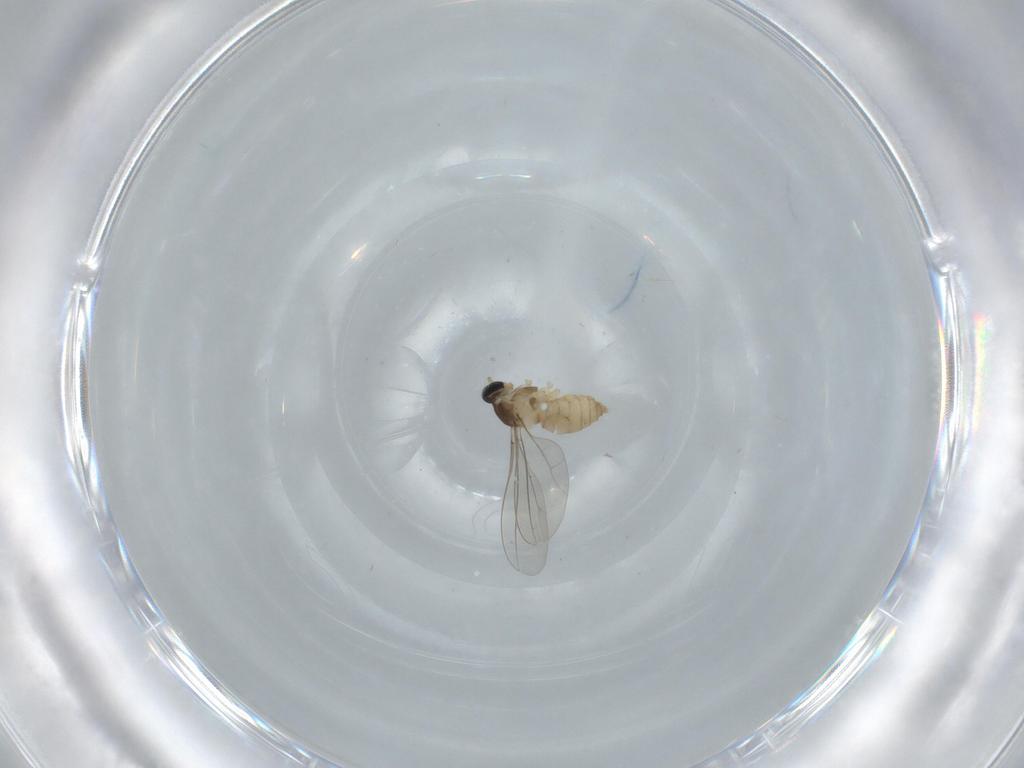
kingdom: Animalia
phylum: Arthropoda
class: Insecta
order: Diptera
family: Cecidomyiidae
